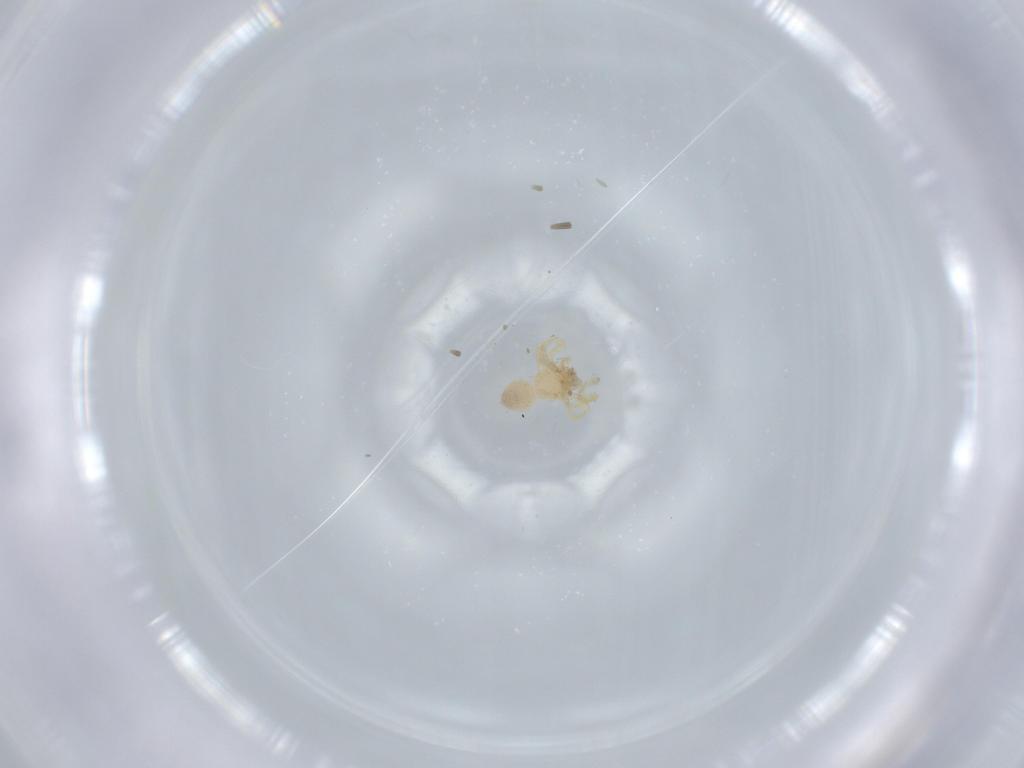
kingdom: Animalia
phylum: Arthropoda
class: Arachnida
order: Araneae
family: Oonopidae
